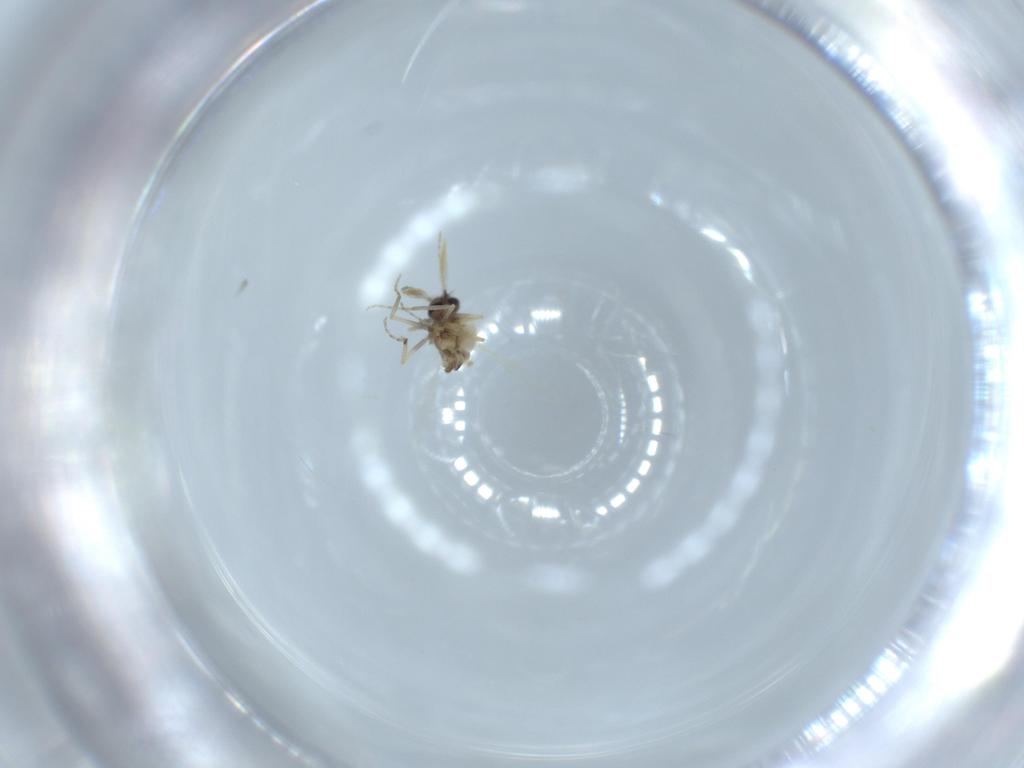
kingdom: Animalia
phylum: Arthropoda
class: Insecta
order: Diptera
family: Ceratopogonidae
